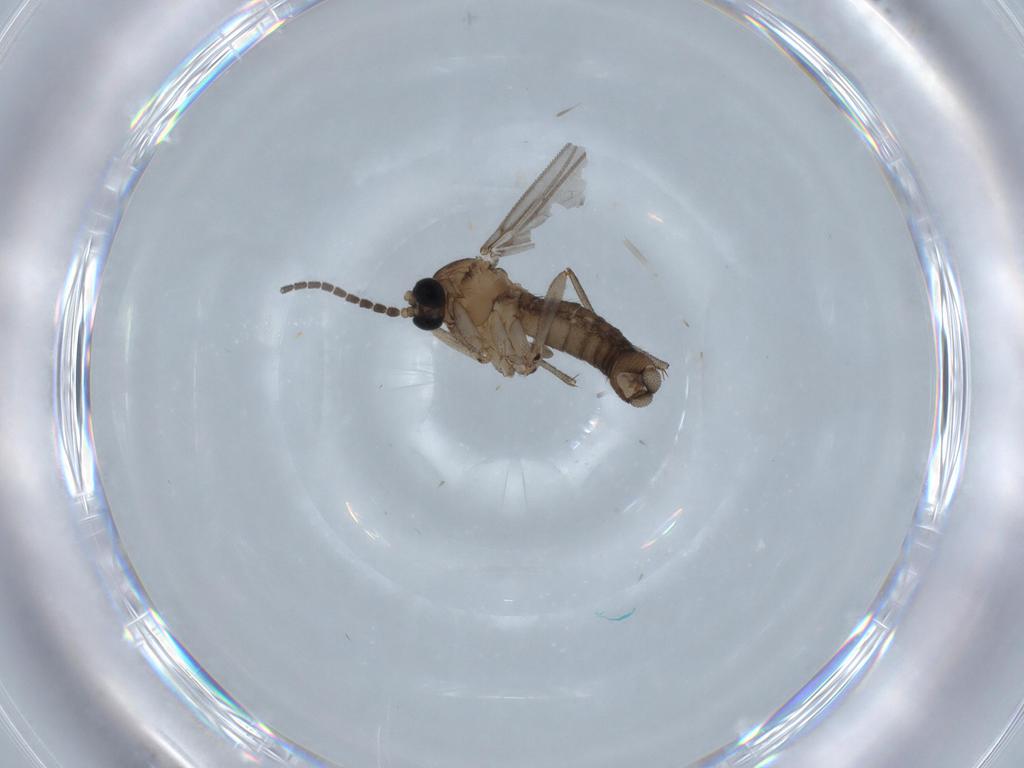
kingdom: Animalia
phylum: Arthropoda
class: Insecta
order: Diptera
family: Sciaridae
